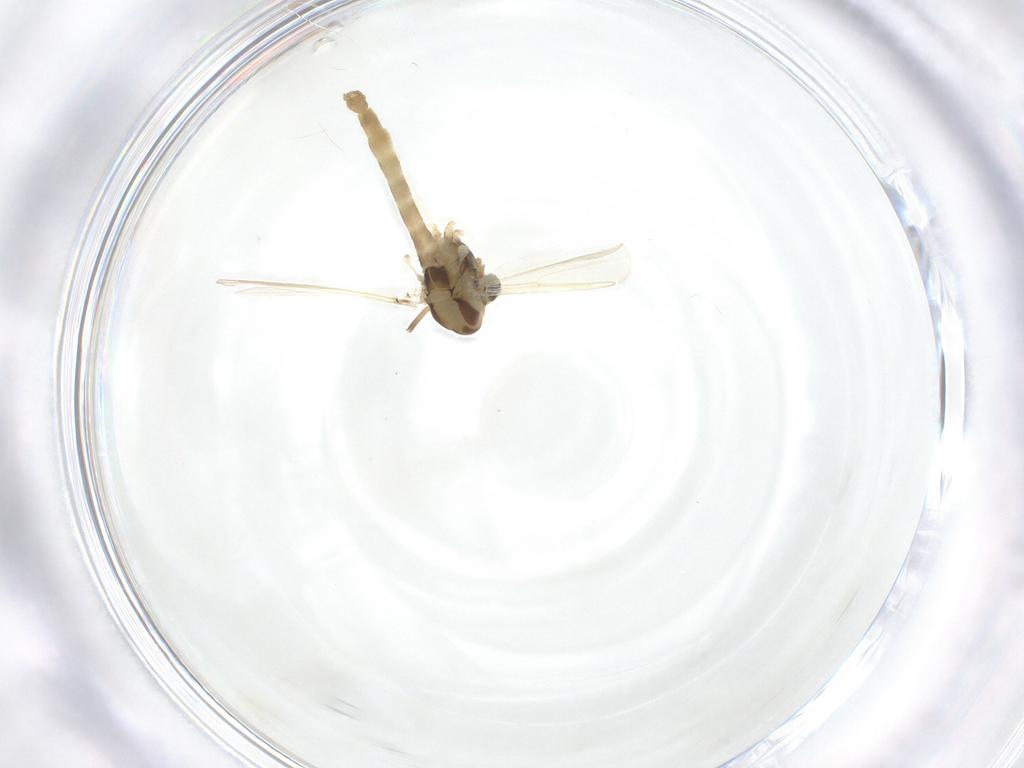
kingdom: Animalia
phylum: Arthropoda
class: Insecta
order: Diptera
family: Chironomidae
